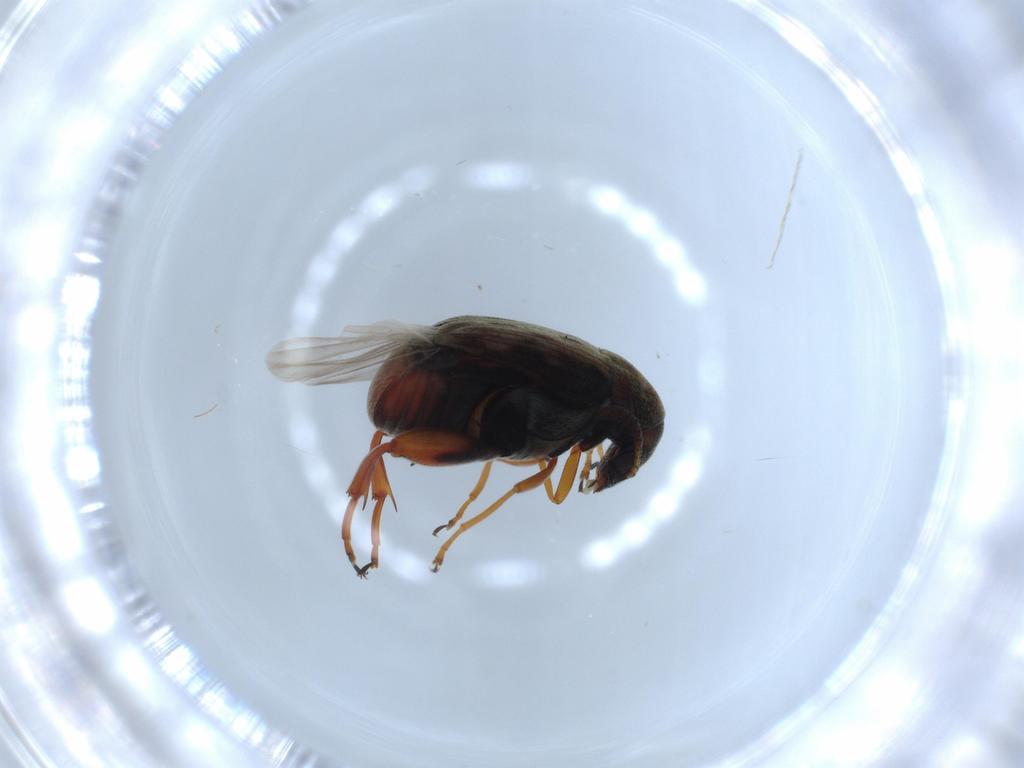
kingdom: Animalia
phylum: Arthropoda
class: Insecta
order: Coleoptera
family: Chrysomelidae
